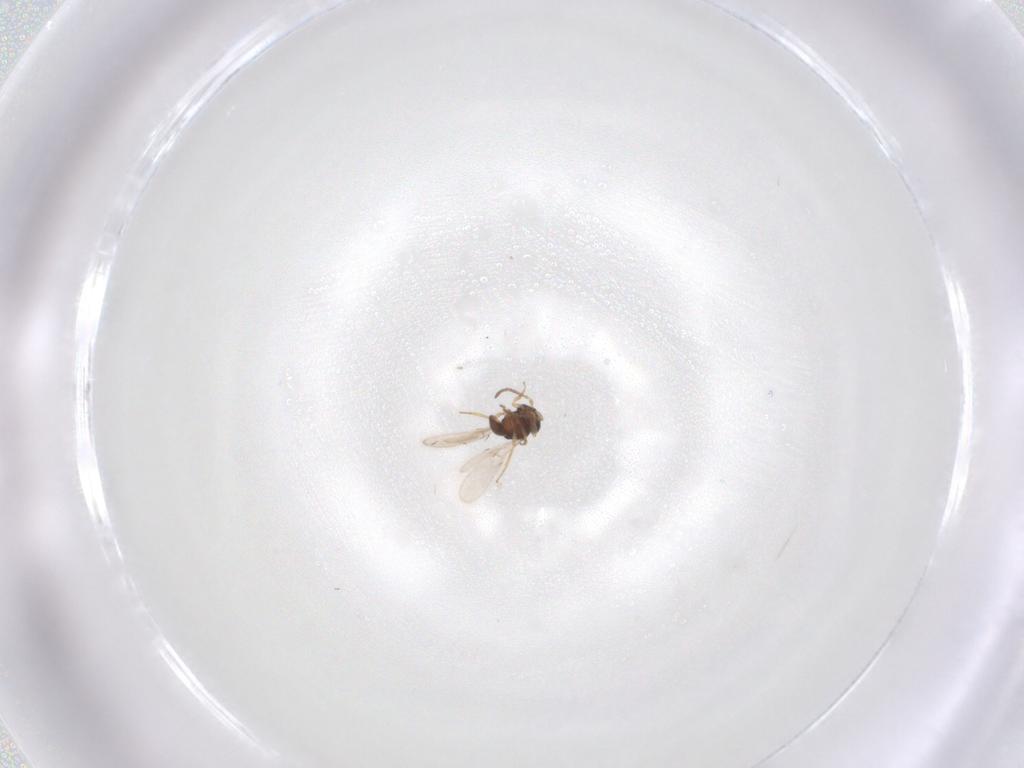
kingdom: Animalia
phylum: Arthropoda
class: Insecta
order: Hymenoptera
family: Scelionidae
